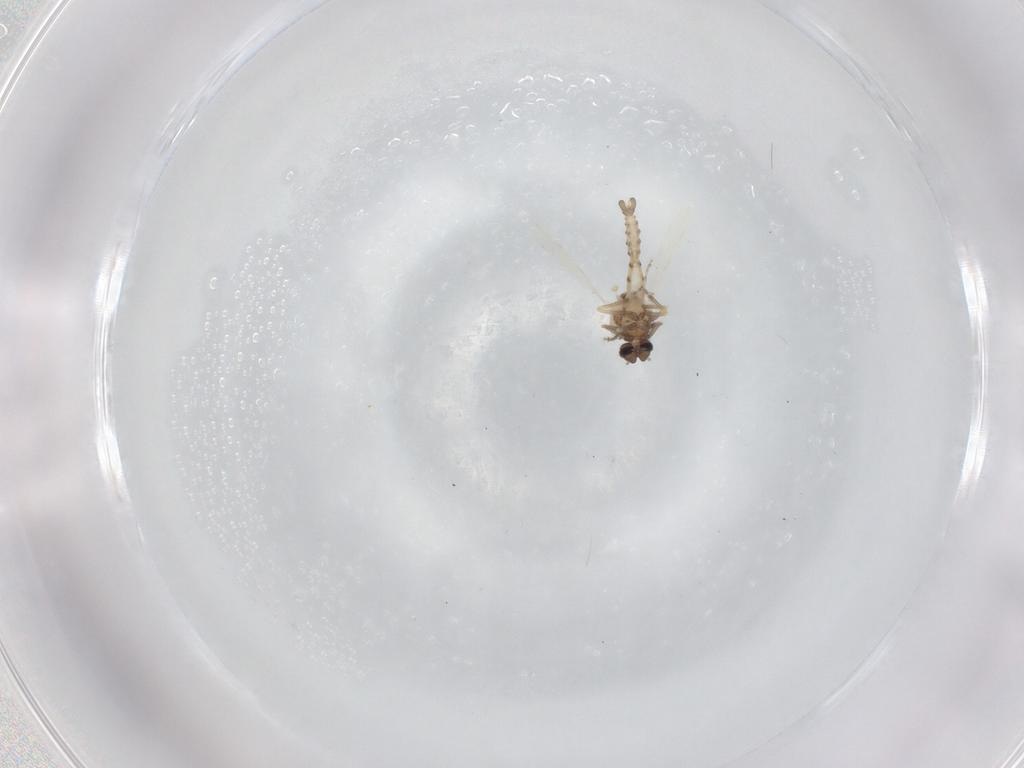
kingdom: Animalia
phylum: Arthropoda
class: Insecta
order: Diptera
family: Ceratopogonidae
